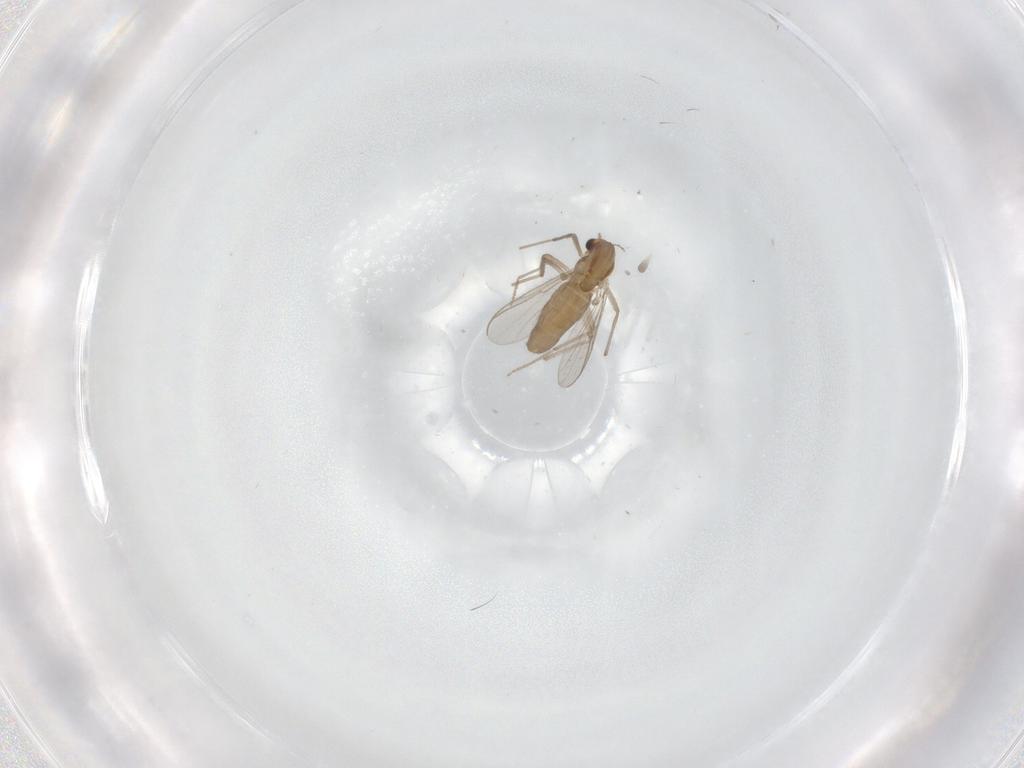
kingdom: Animalia
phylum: Arthropoda
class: Insecta
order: Diptera
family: Chironomidae
